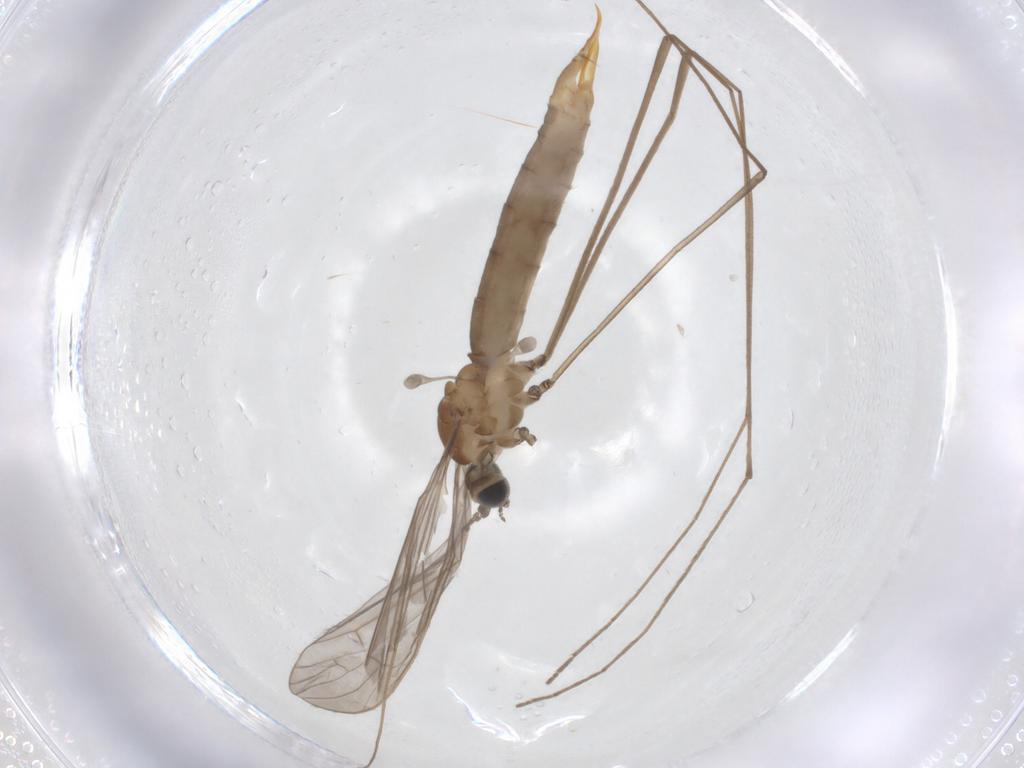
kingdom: Animalia
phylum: Arthropoda
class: Insecta
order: Diptera
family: Limoniidae
